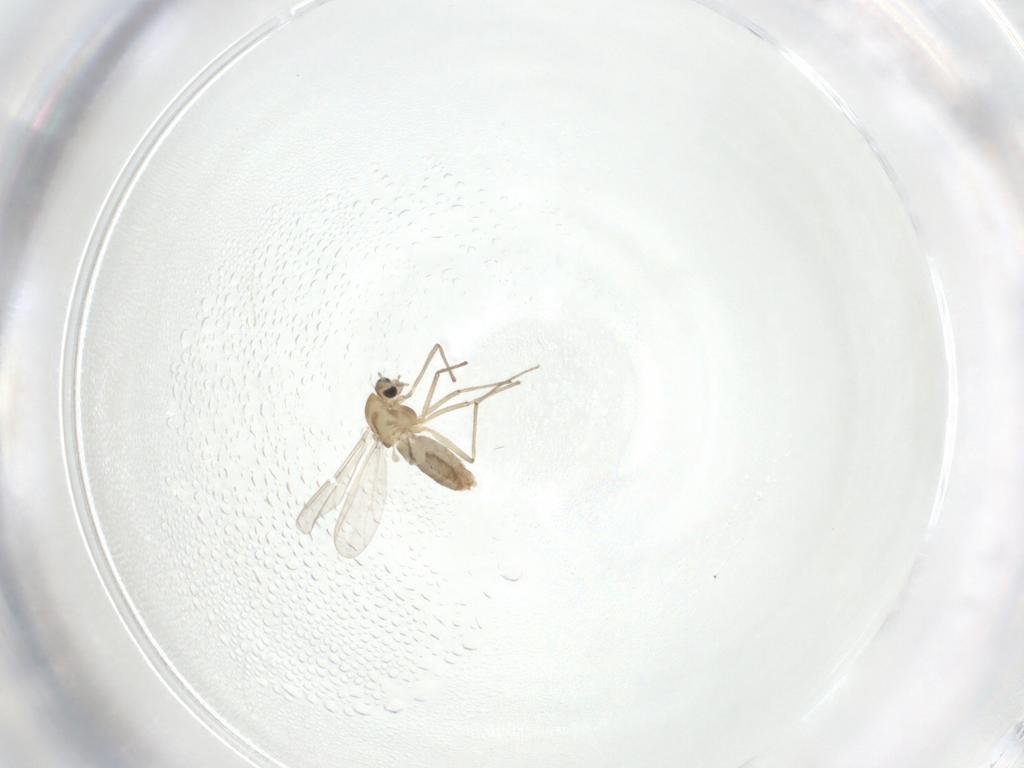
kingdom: Animalia
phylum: Arthropoda
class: Insecta
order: Diptera
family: Chironomidae
